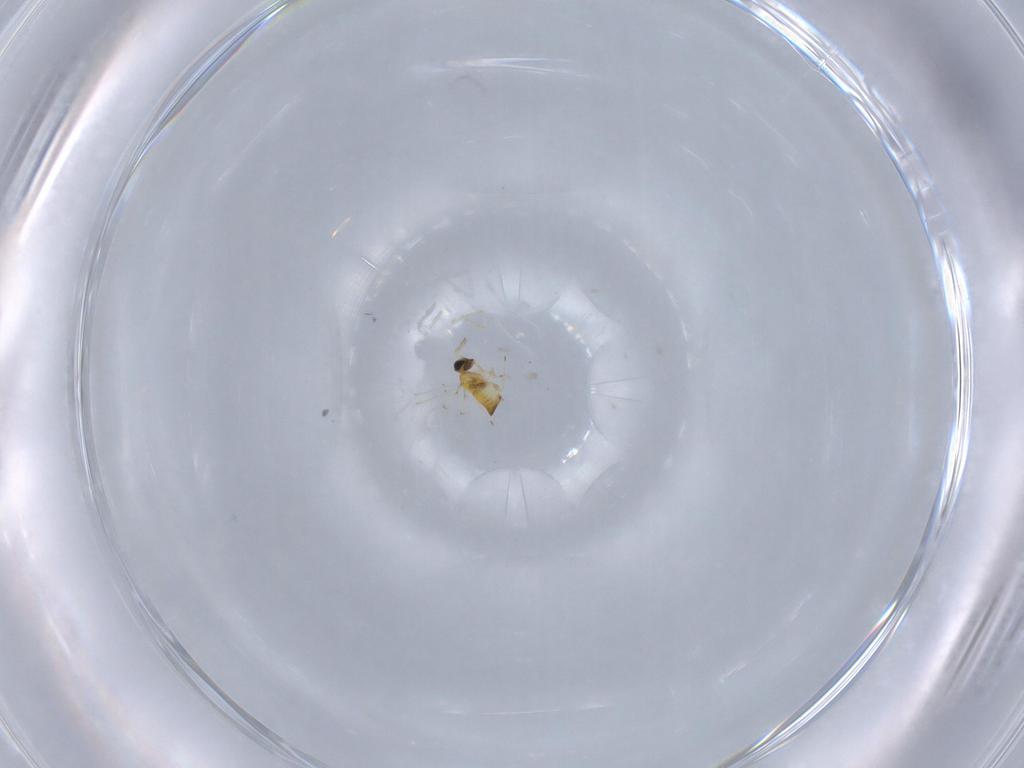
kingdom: Animalia
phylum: Arthropoda
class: Insecta
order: Hymenoptera
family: Trichogrammatidae
